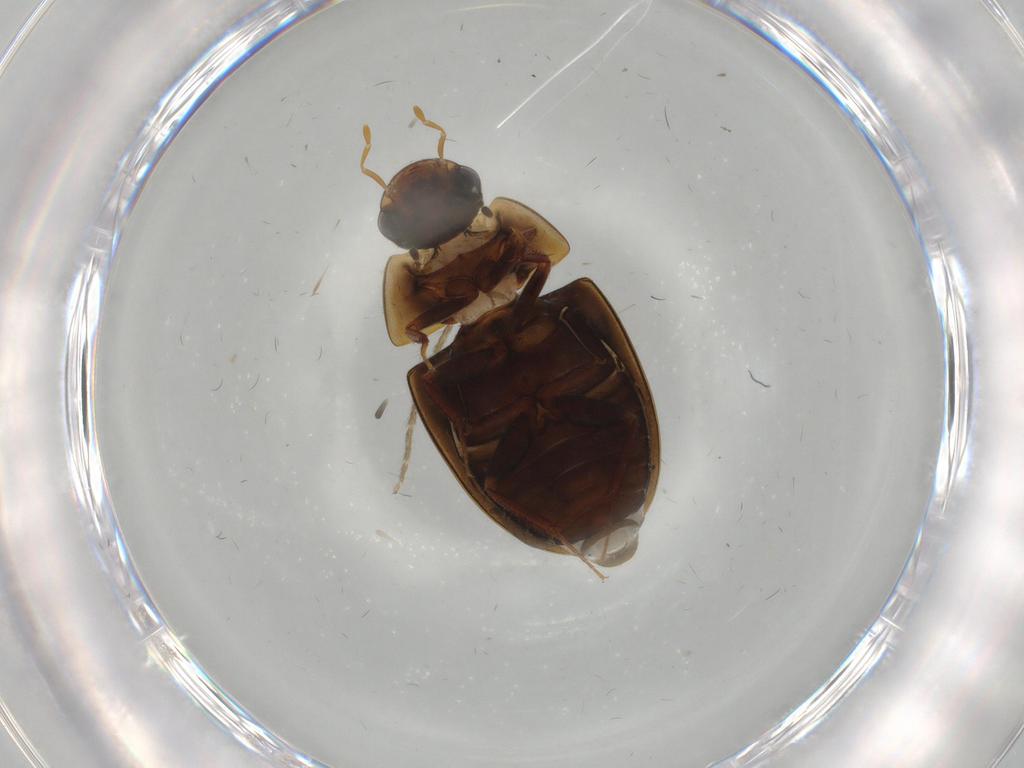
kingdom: Animalia
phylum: Arthropoda
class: Insecta
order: Diptera
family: Chironomidae
